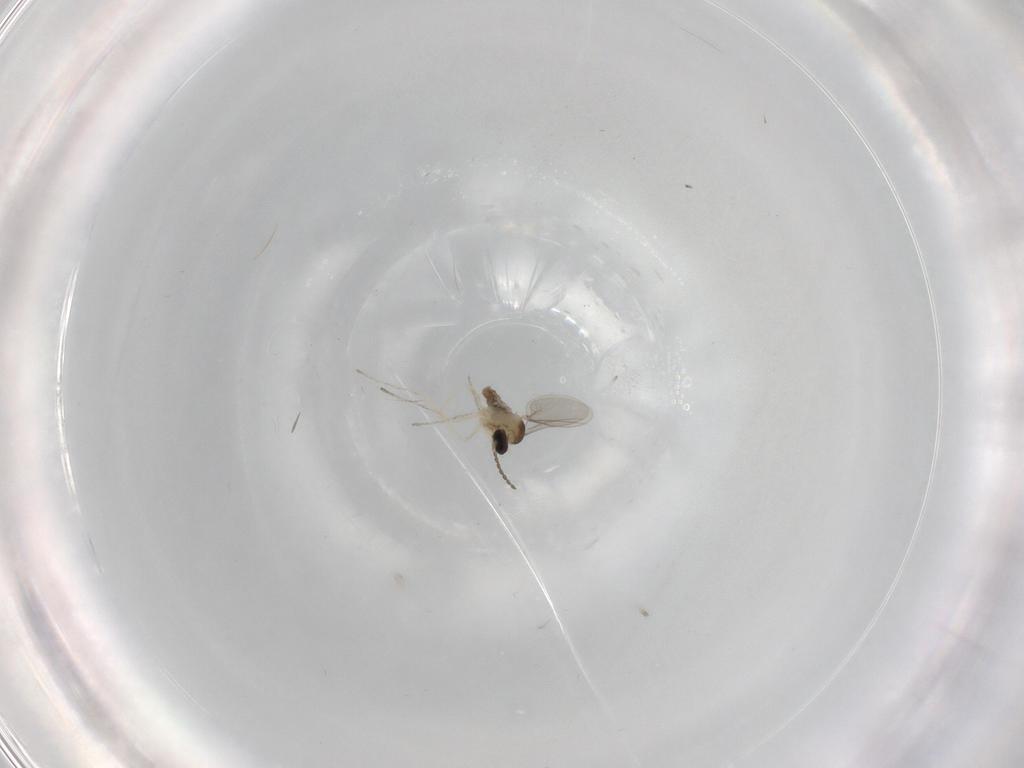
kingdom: Animalia
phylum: Arthropoda
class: Insecta
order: Diptera
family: Cecidomyiidae
